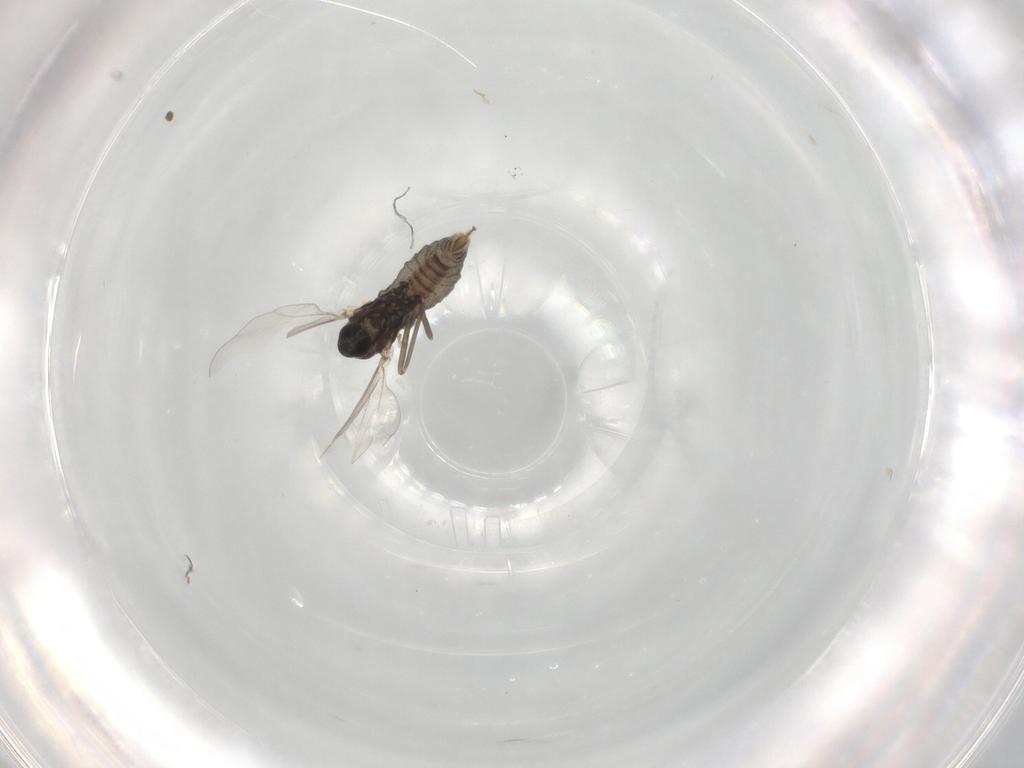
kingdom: Animalia
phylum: Arthropoda
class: Insecta
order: Diptera
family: Cecidomyiidae
